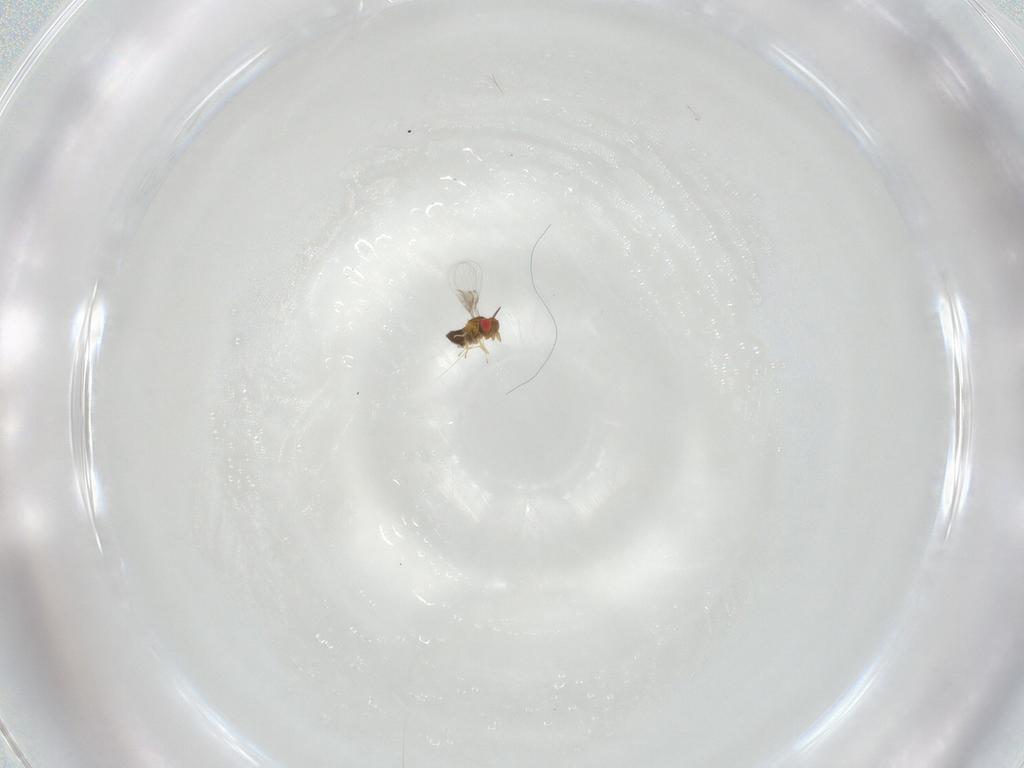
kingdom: Animalia
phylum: Arthropoda
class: Insecta
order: Hymenoptera
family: Trichogrammatidae
